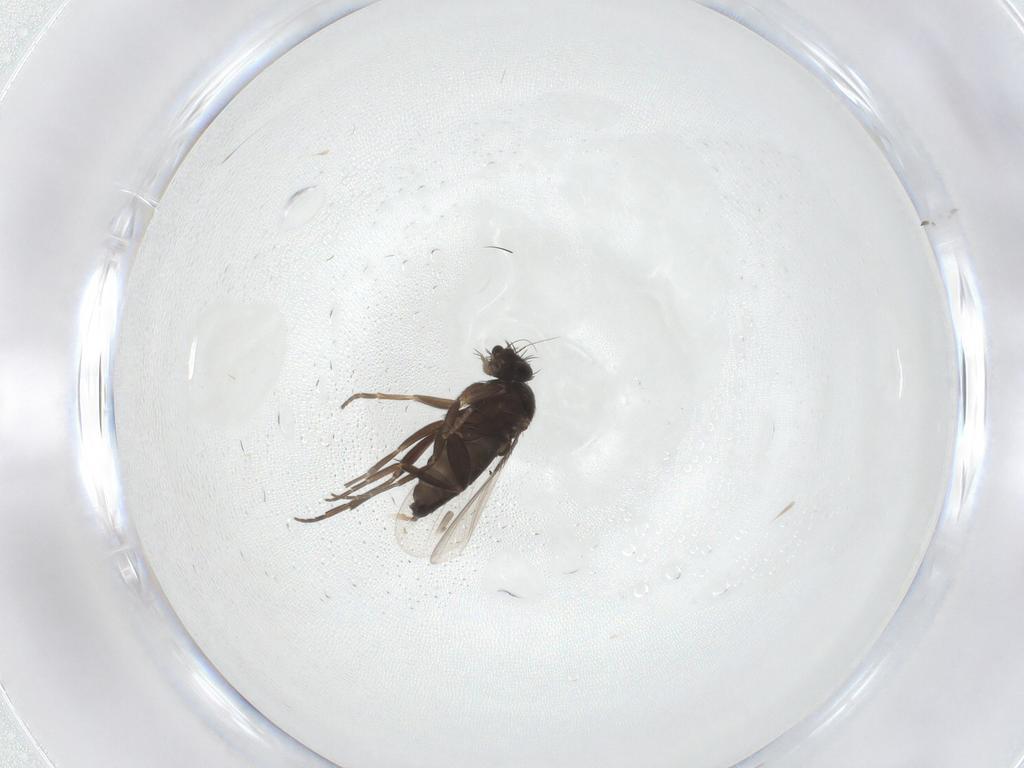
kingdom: Animalia
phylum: Arthropoda
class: Insecta
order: Diptera
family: Phoridae
